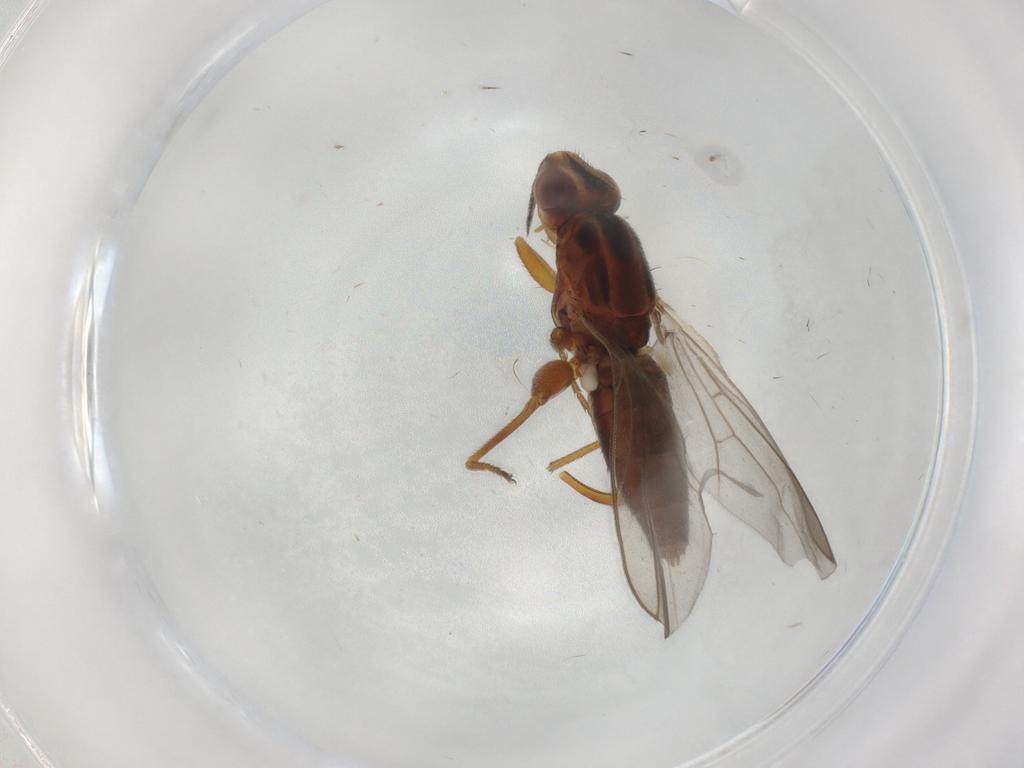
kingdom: Animalia
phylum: Arthropoda
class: Insecta
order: Diptera
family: Chloropidae
